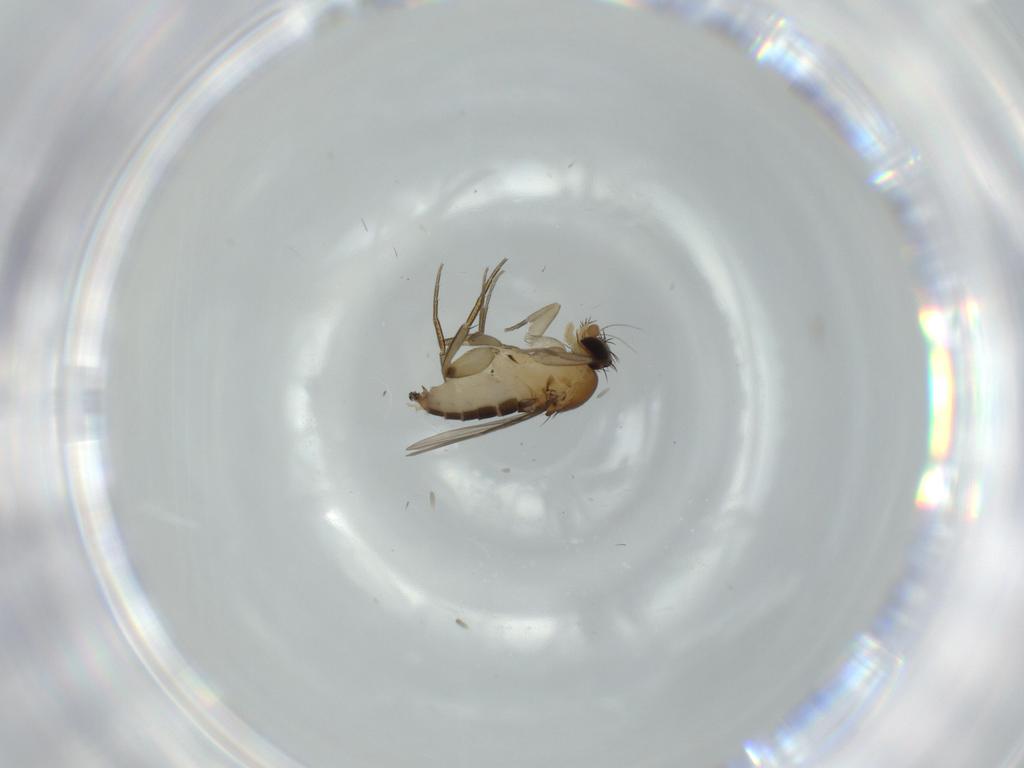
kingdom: Animalia
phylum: Arthropoda
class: Insecta
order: Diptera
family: Phoridae
